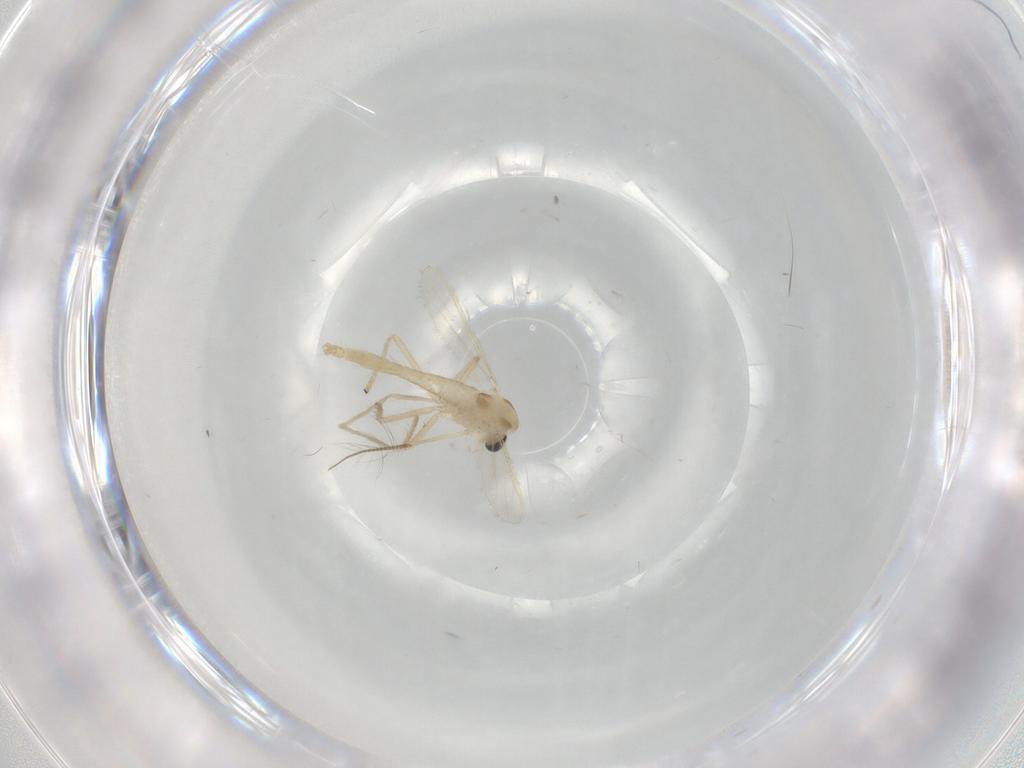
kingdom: Animalia
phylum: Arthropoda
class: Insecta
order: Diptera
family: Chironomidae
